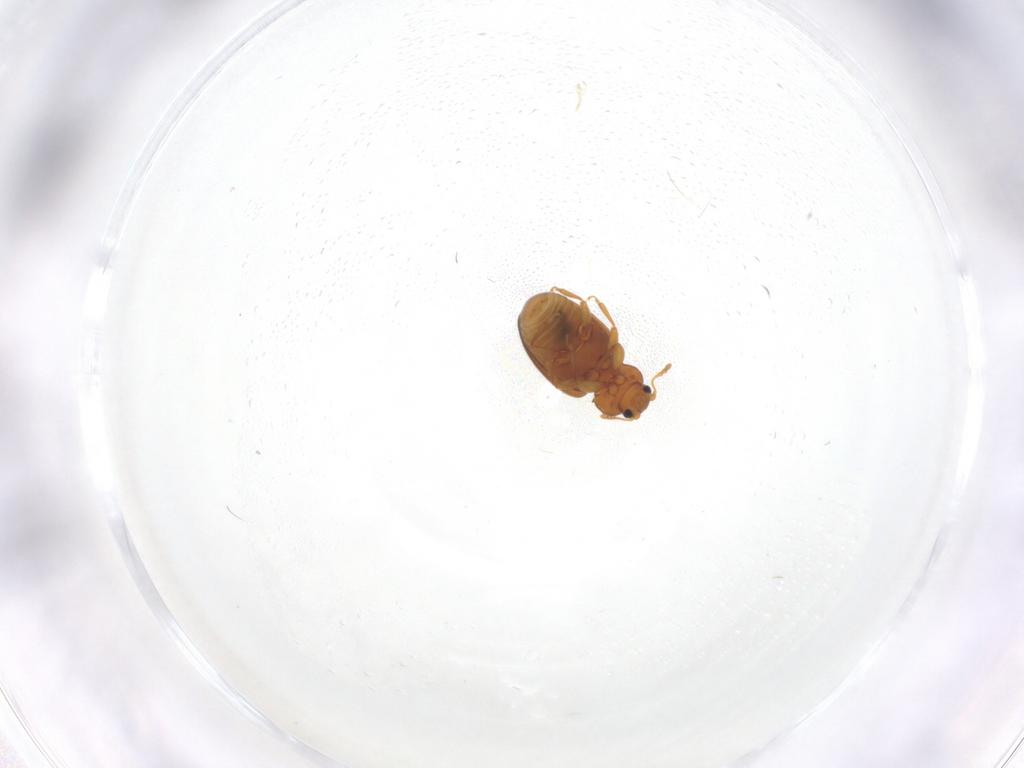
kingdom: Animalia
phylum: Arthropoda
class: Insecta
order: Coleoptera
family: Latridiidae
